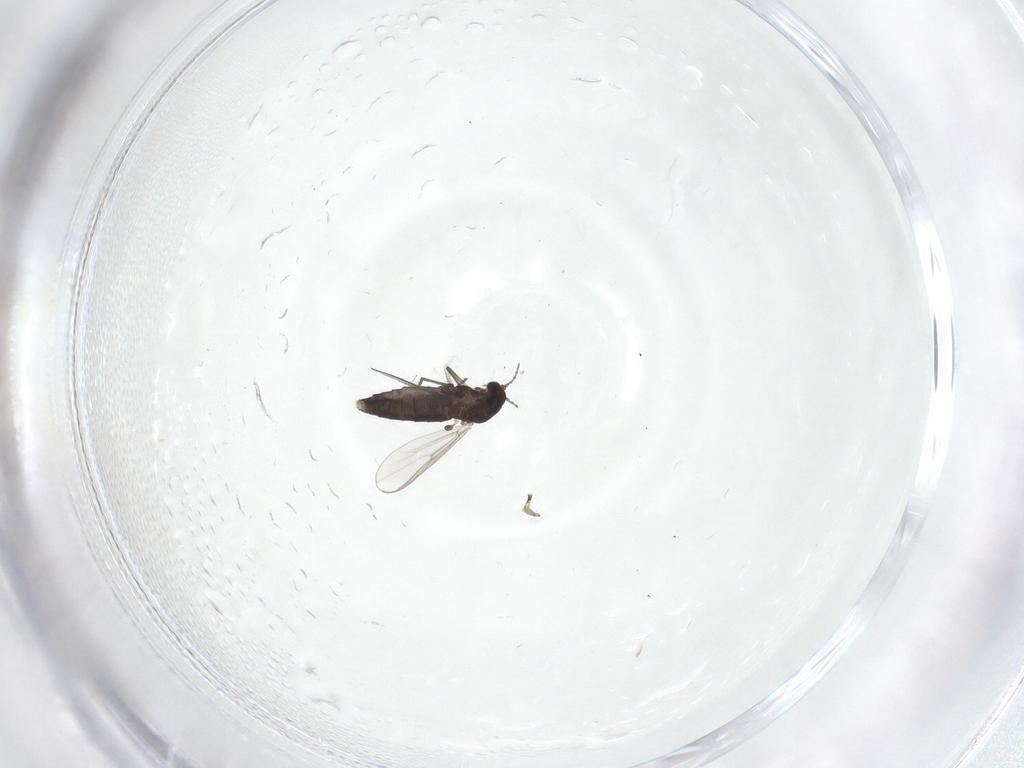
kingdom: Animalia
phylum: Arthropoda
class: Insecta
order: Diptera
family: Chironomidae
